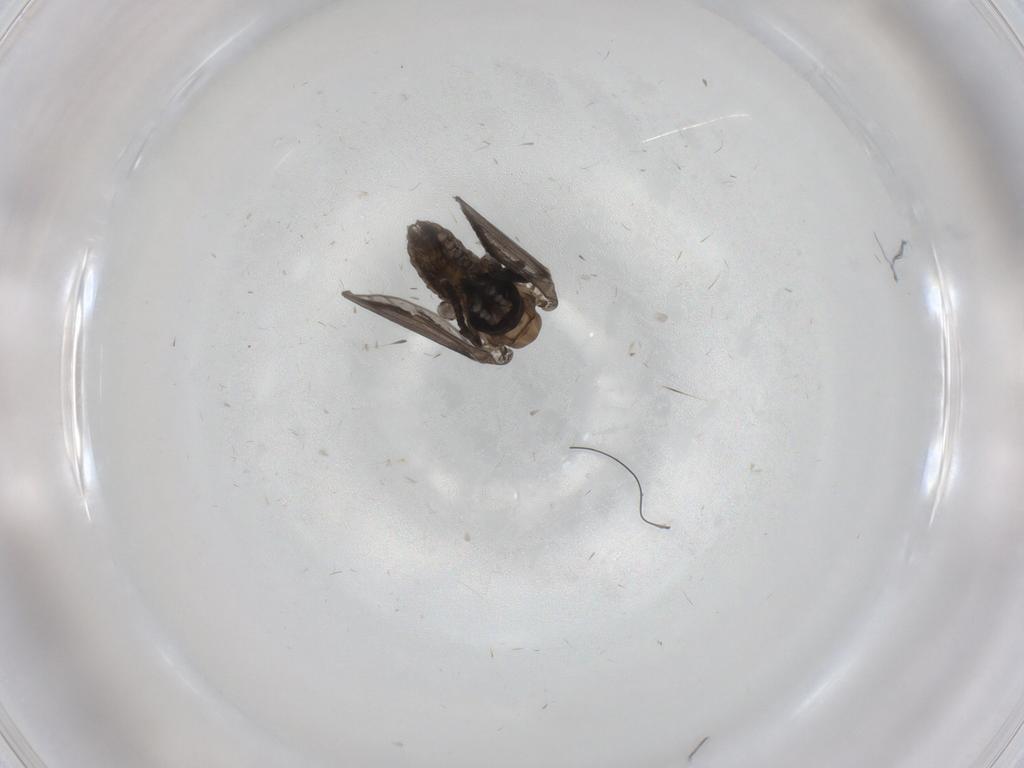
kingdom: Animalia
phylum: Arthropoda
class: Insecta
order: Diptera
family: Psychodidae
